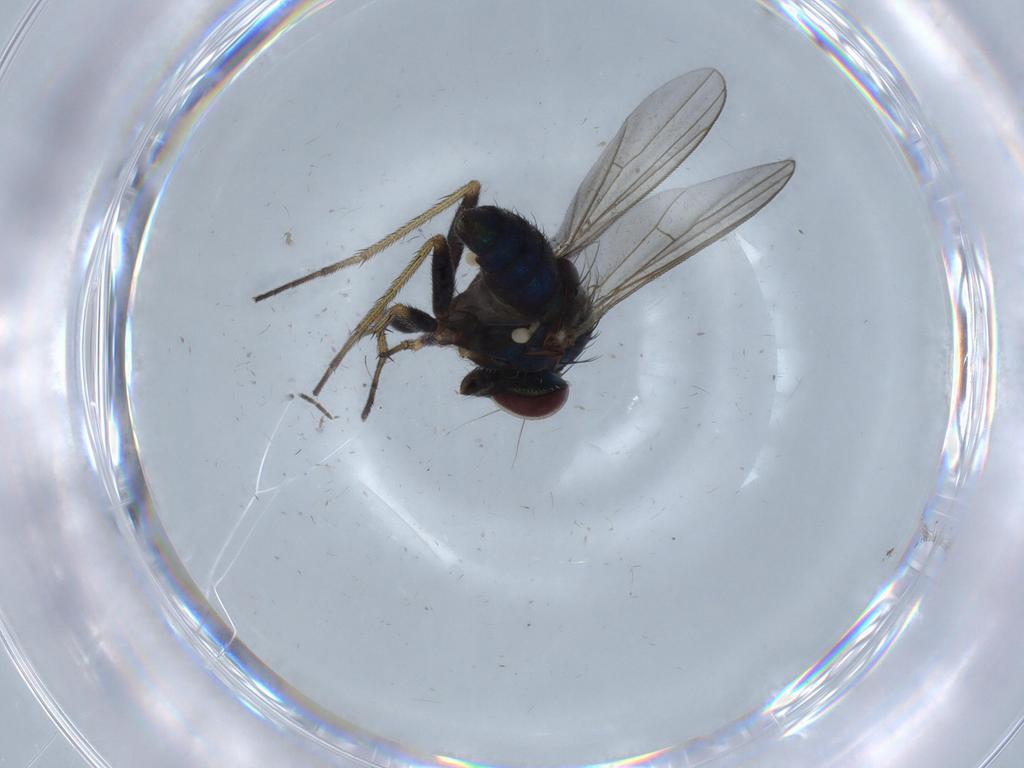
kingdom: Animalia
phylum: Arthropoda
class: Insecta
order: Diptera
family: Dolichopodidae
